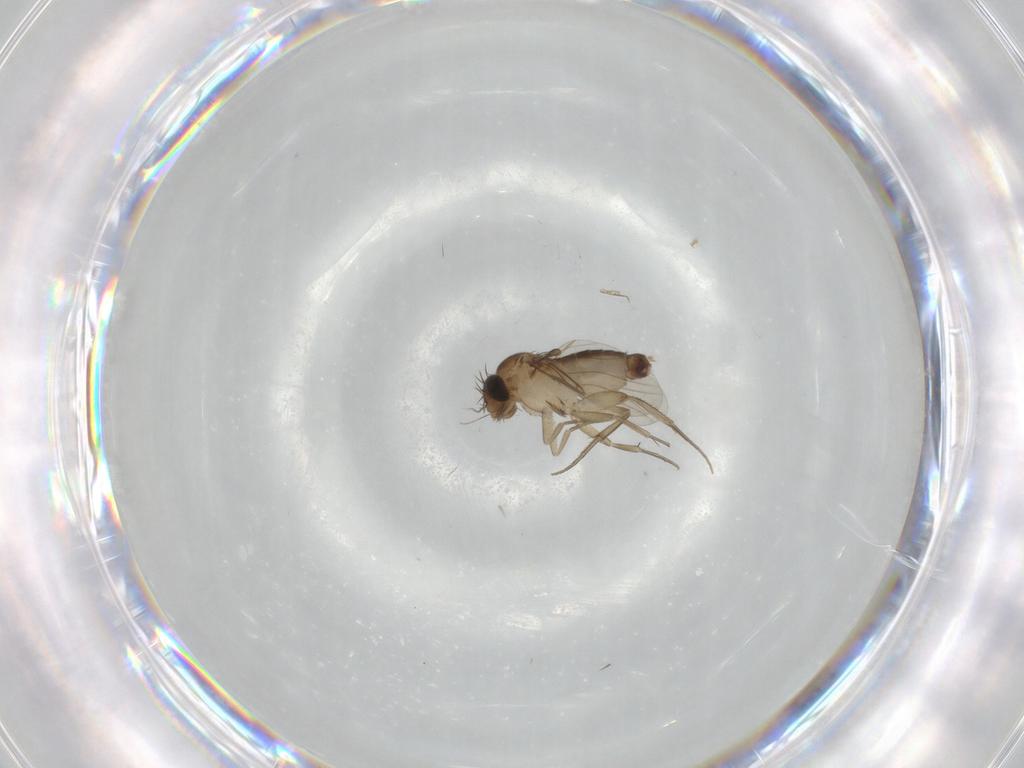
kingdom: Animalia
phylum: Arthropoda
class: Insecta
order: Diptera
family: Phoridae
